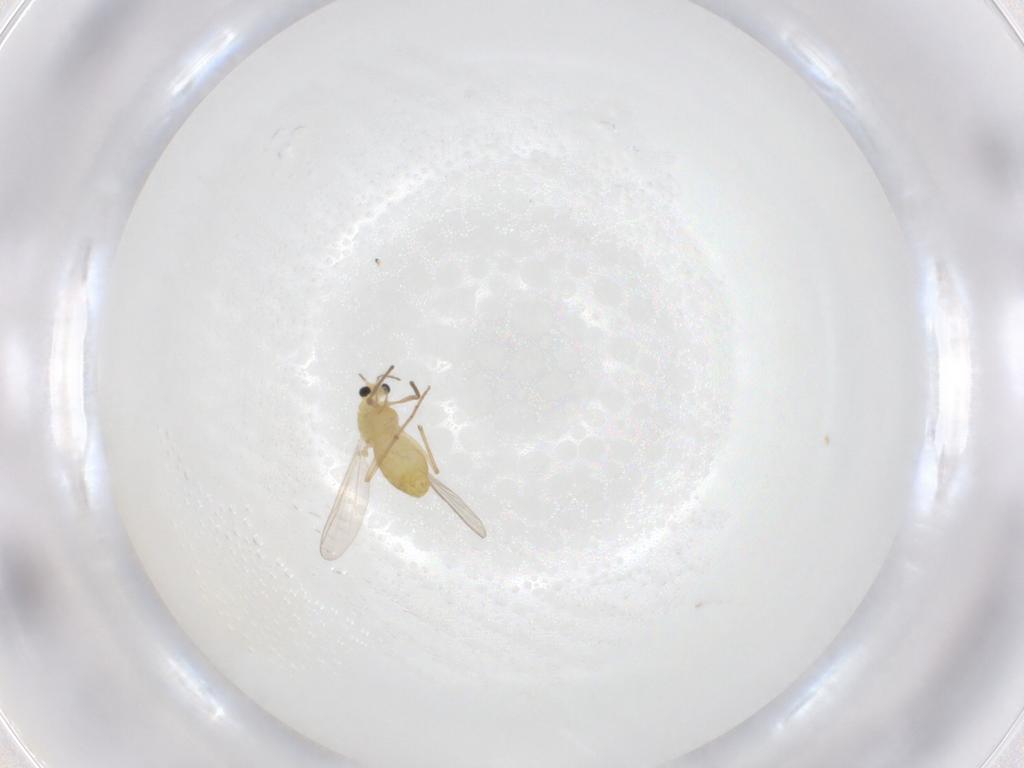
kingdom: Animalia
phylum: Arthropoda
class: Insecta
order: Diptera
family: Chironomidae
